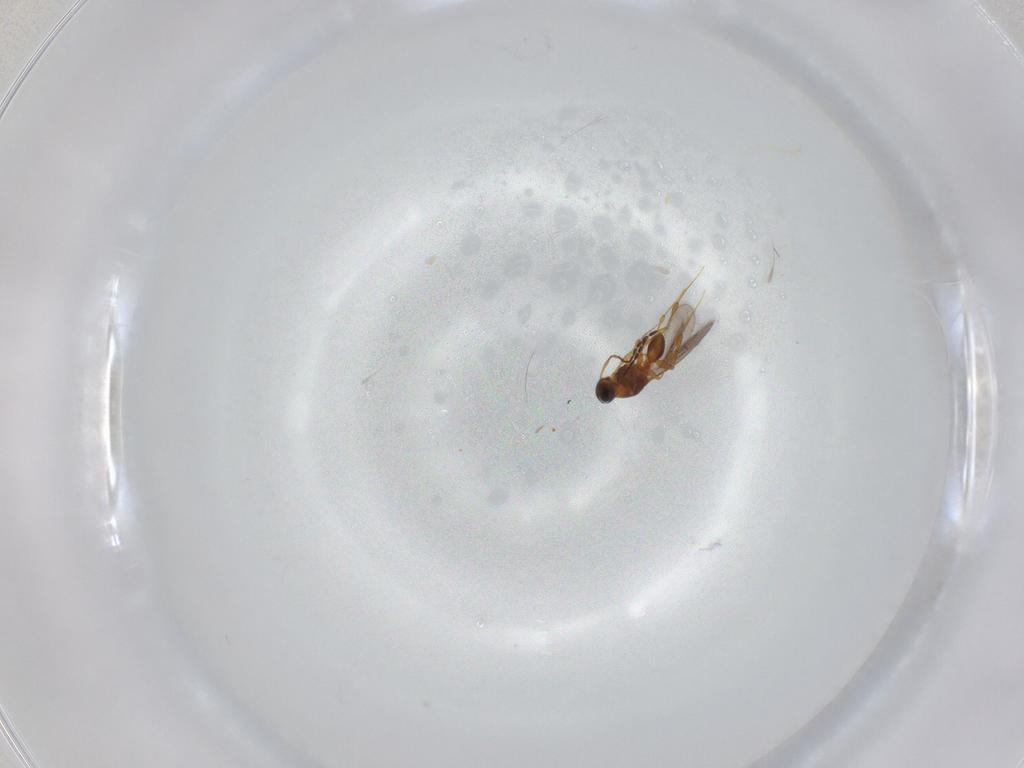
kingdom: Animalia
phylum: Arthropoda
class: Insecta
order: Hymenoptera
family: Platygastridae
